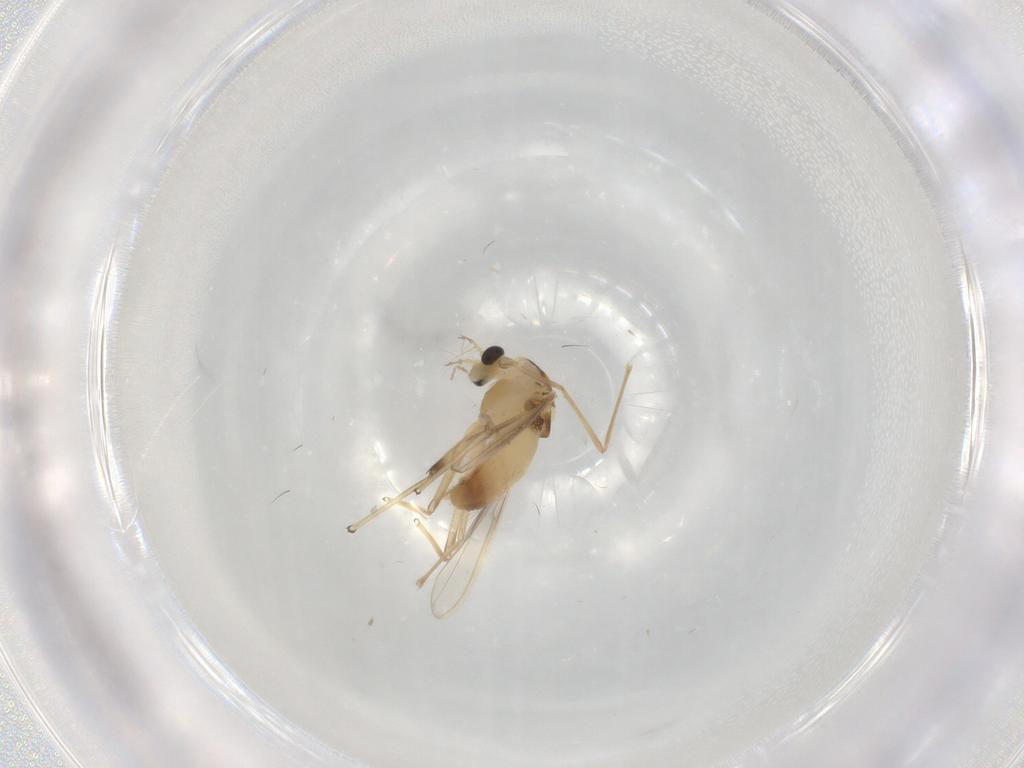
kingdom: Animalia
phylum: Arthropoda
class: Insecta
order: Diptera
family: Chironomidae
